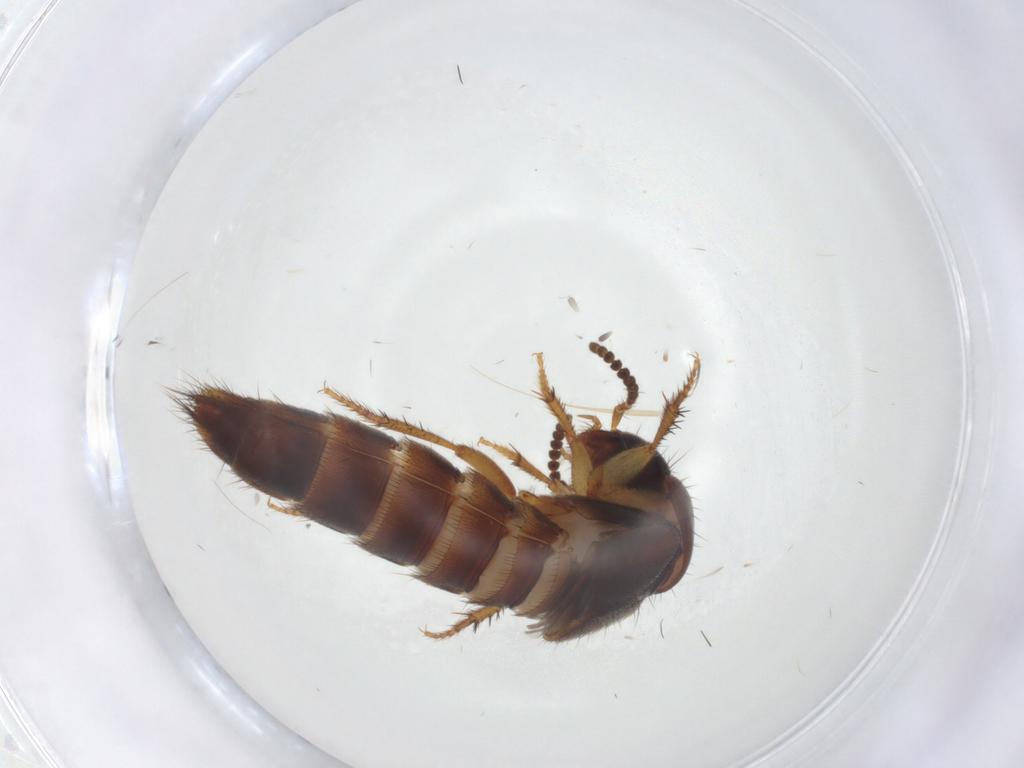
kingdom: Animalia
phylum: Arthropoda
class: Insecta
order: Coleoptera
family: Staphylinidae
